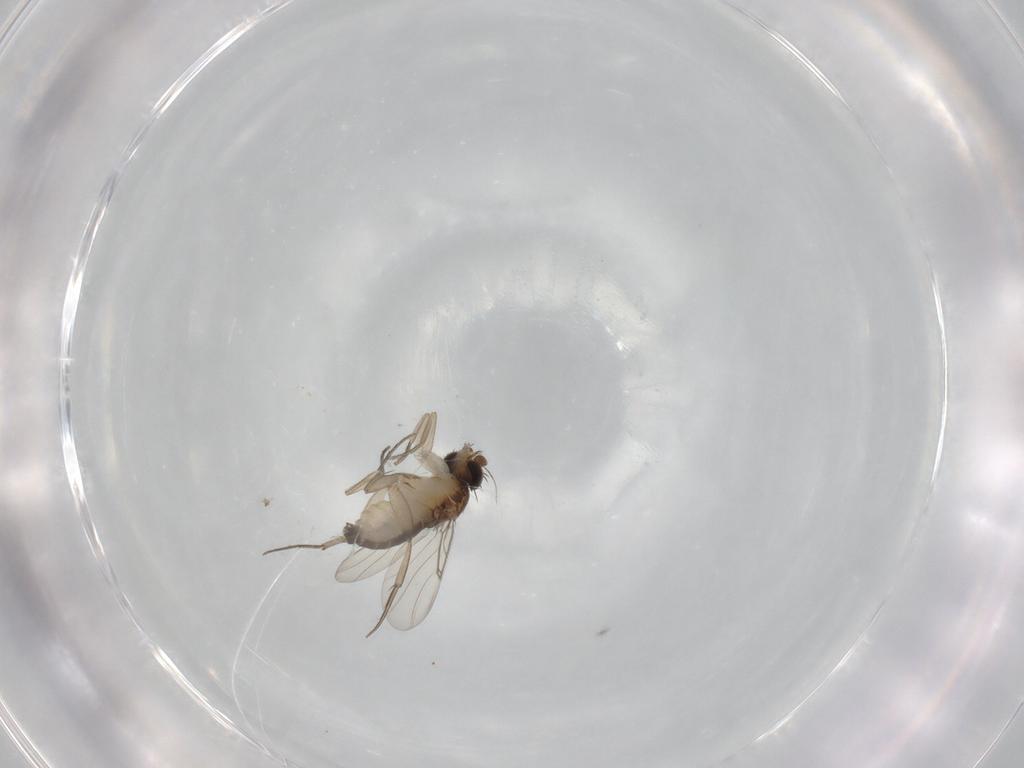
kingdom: Animalia
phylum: Arthropoda
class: Insecta
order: Diptera
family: Phoridae
